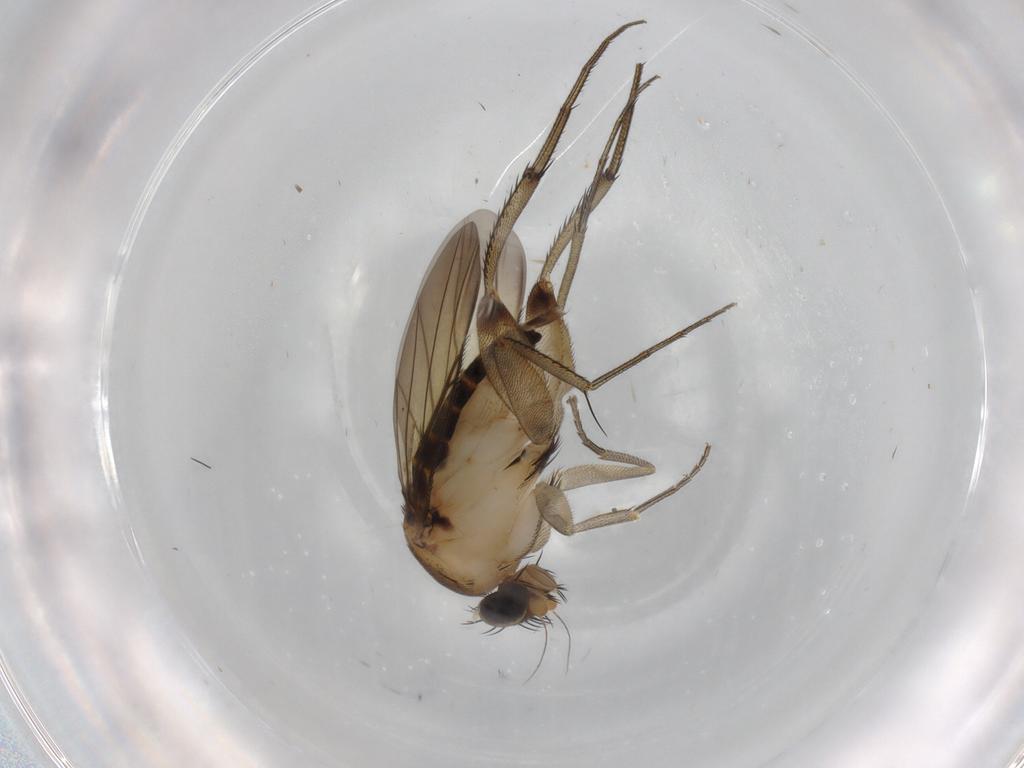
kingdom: Animalia
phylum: Arthropoda
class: Insecta
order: Diptera
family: Phoridae
